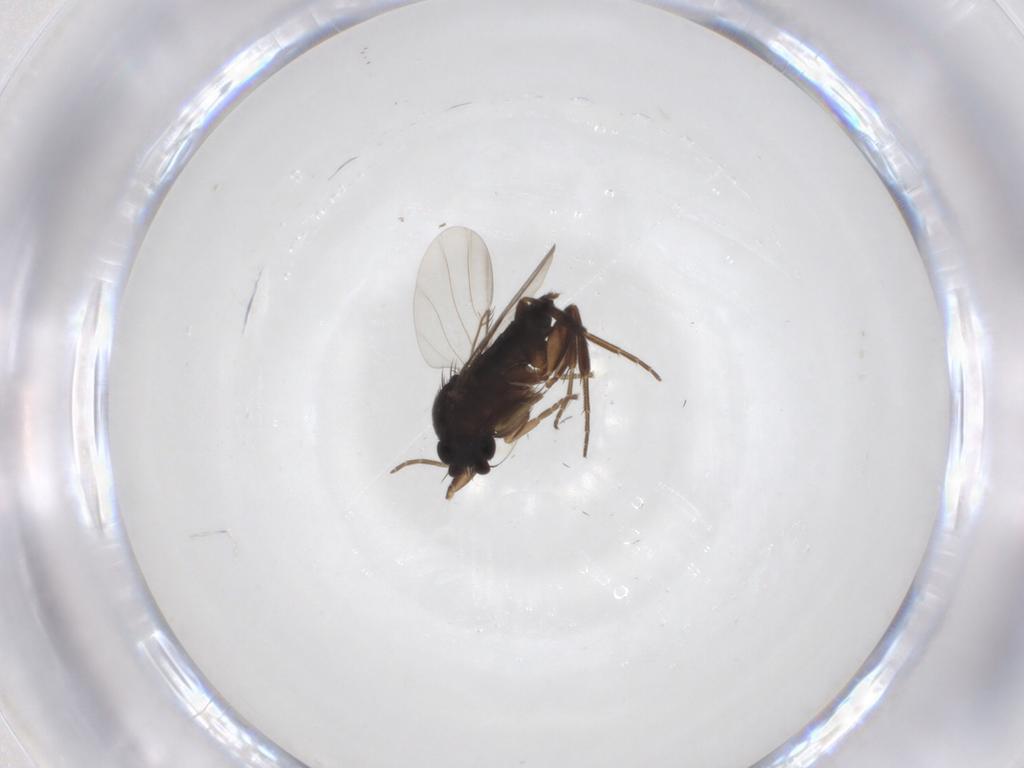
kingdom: Animalia
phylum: Arthropoda
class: Insecta
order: Diptera
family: Phoridae
